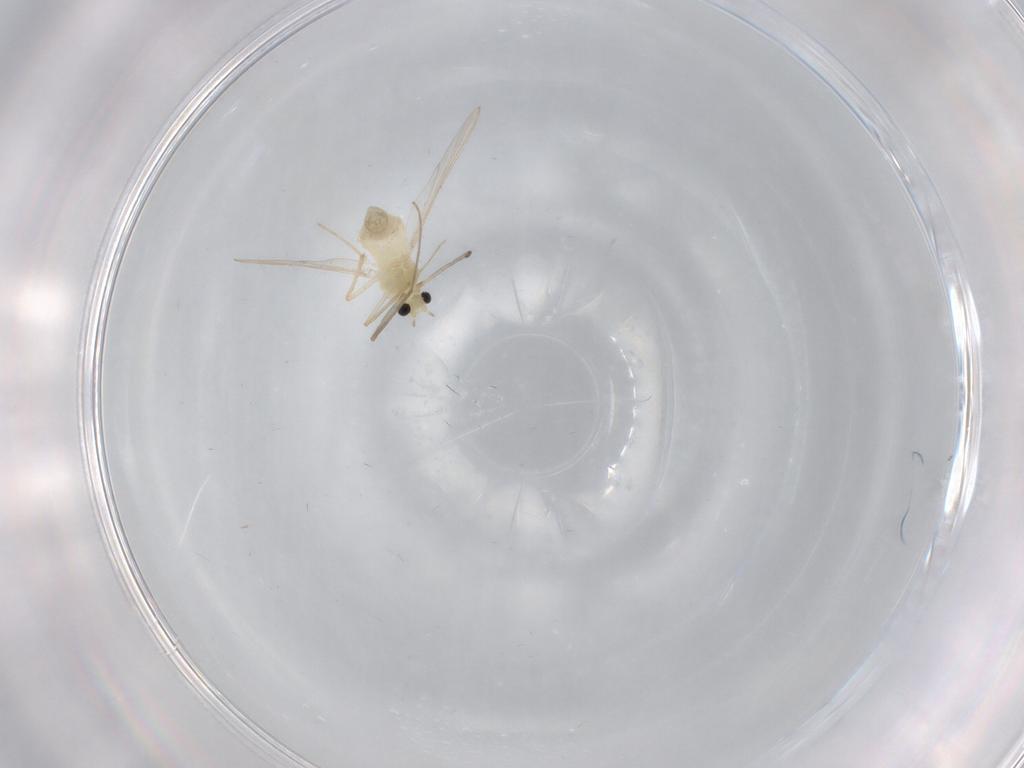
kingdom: Animalia
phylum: Arthropoda
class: Insecta
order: Diptera
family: Chironomidae
